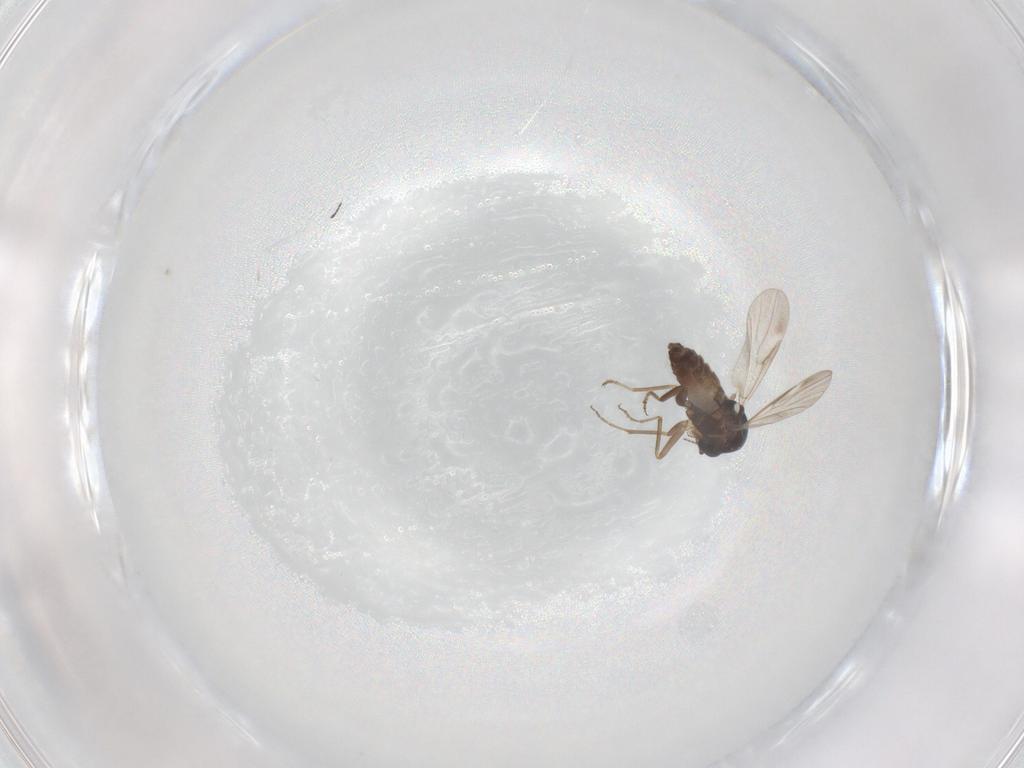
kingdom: Animalia
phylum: Arthropoda
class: Insecta
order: Diptera
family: Ceratopogonidae
